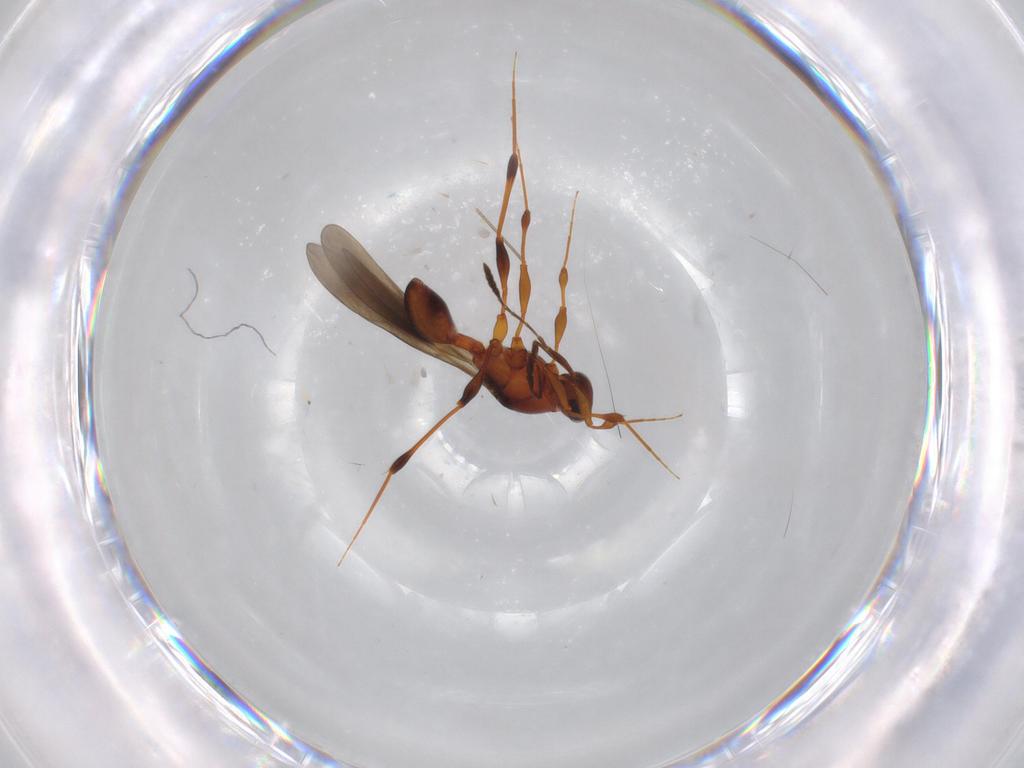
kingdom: Animalia
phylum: Arthropoda
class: Insecta
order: Hymenoptera
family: Platygastridae
